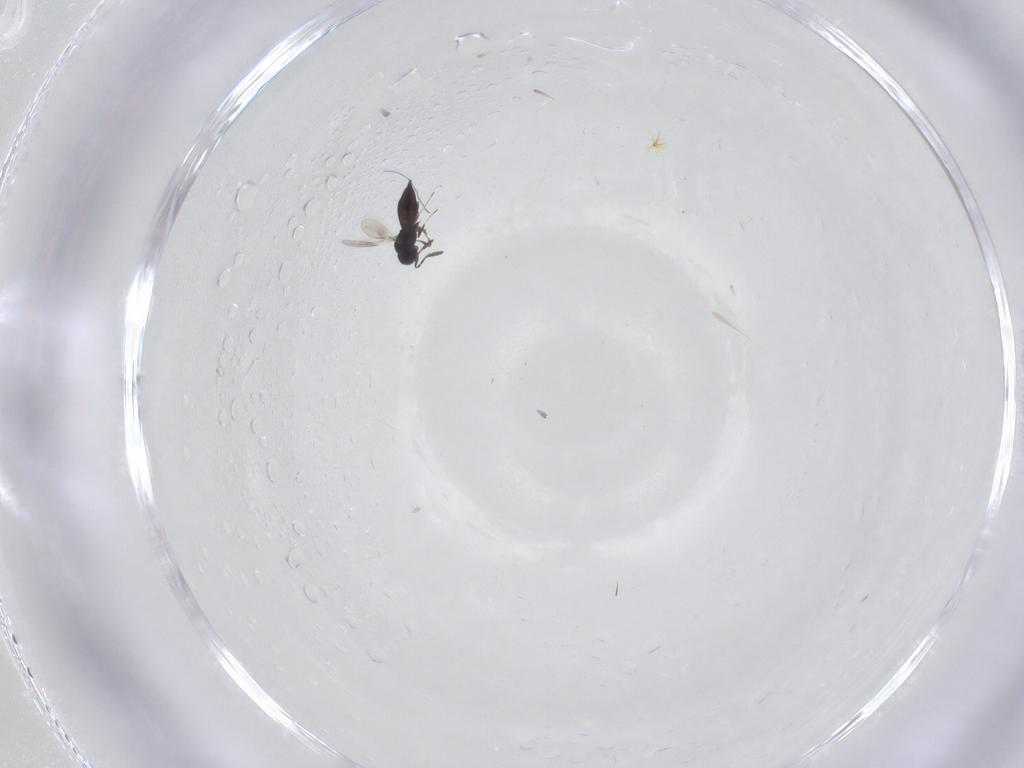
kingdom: Animalia
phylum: Arthropoda
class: Insecta
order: Hymenoptera
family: Scelionidae
